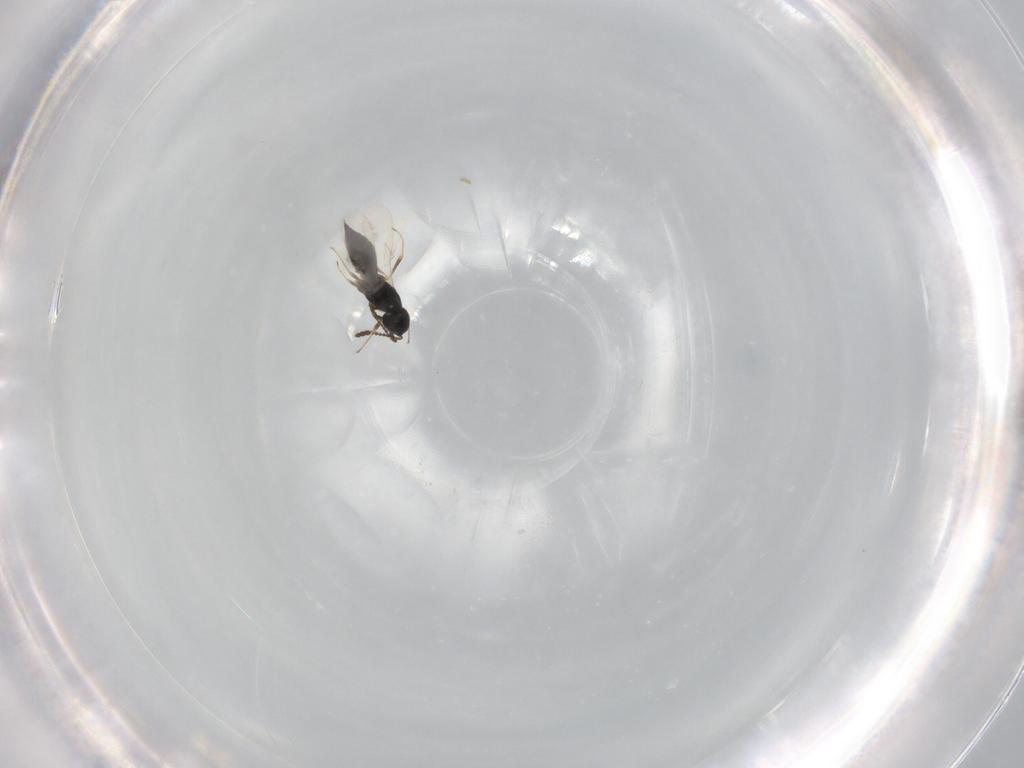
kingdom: Animalia
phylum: Arthropoda
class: Insecta
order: Hymenoptera
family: Scelionidae
